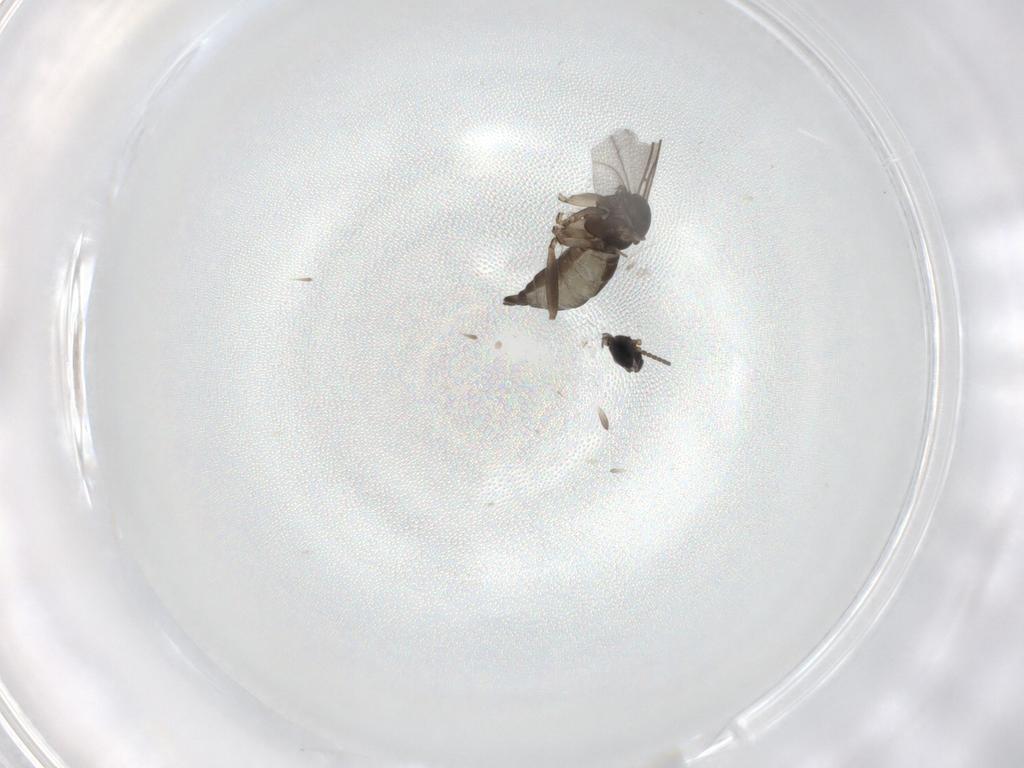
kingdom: Animalia
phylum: Arthropoda
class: Insecta
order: Diptera
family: Sciaridae
